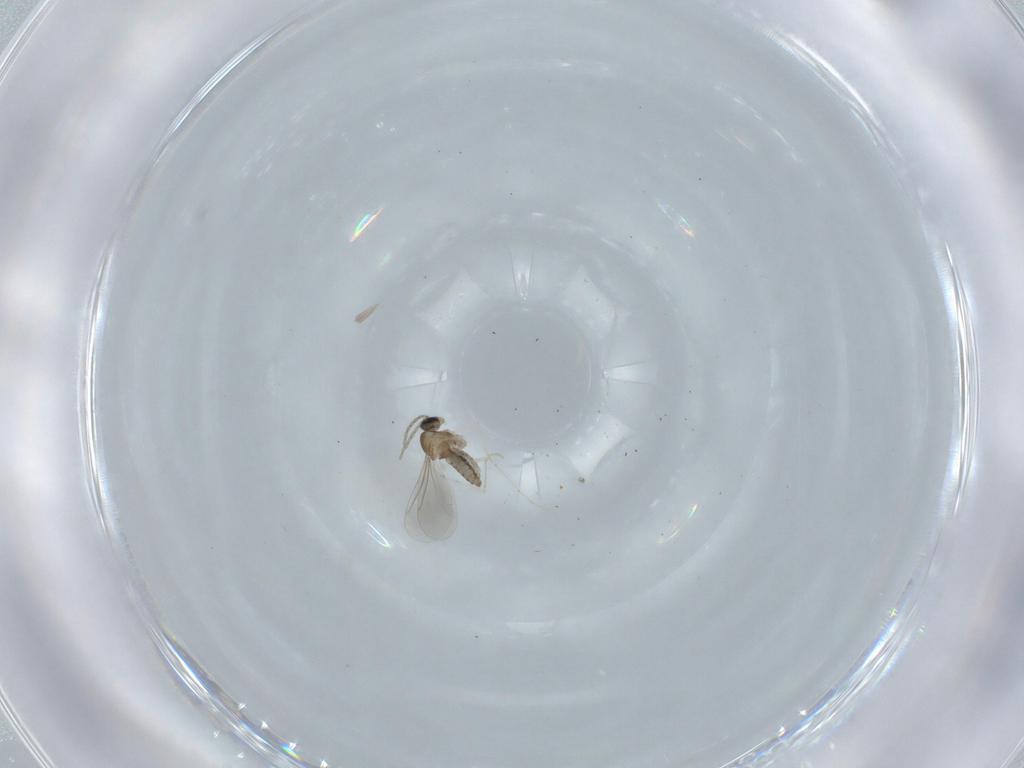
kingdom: Animalia
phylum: Arthropoda
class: Insecta
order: Diptera
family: Cecidomyiidae
